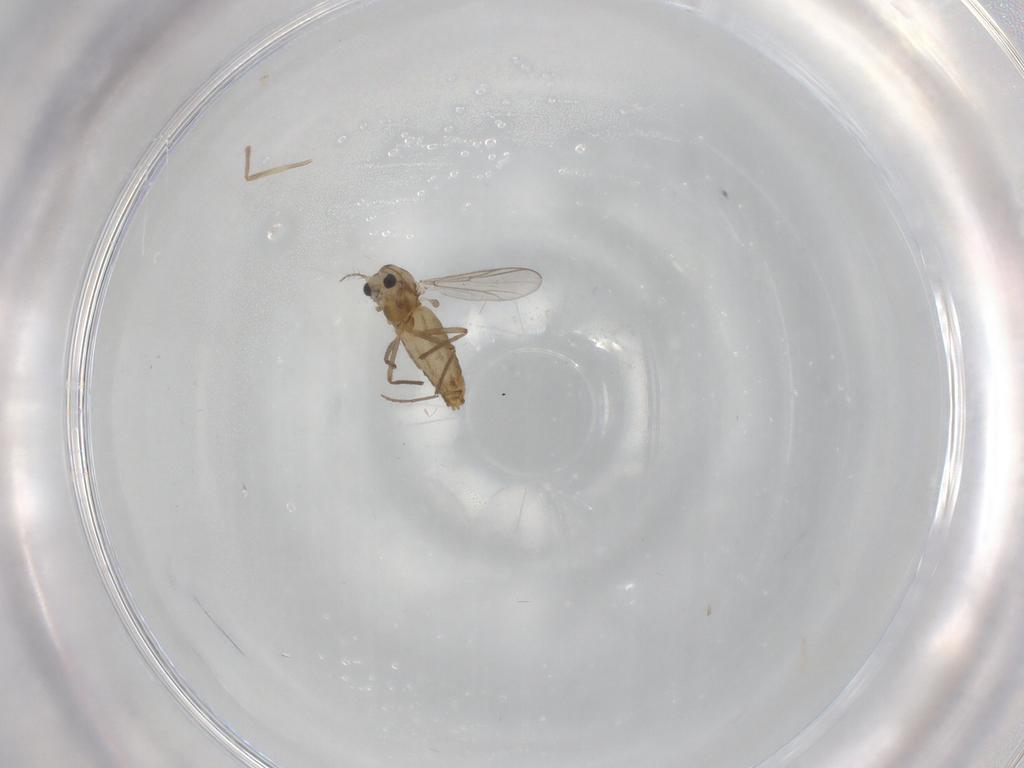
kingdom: Animalia
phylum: Arthropoda
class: Insecta
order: Diptera
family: Chironomidae
